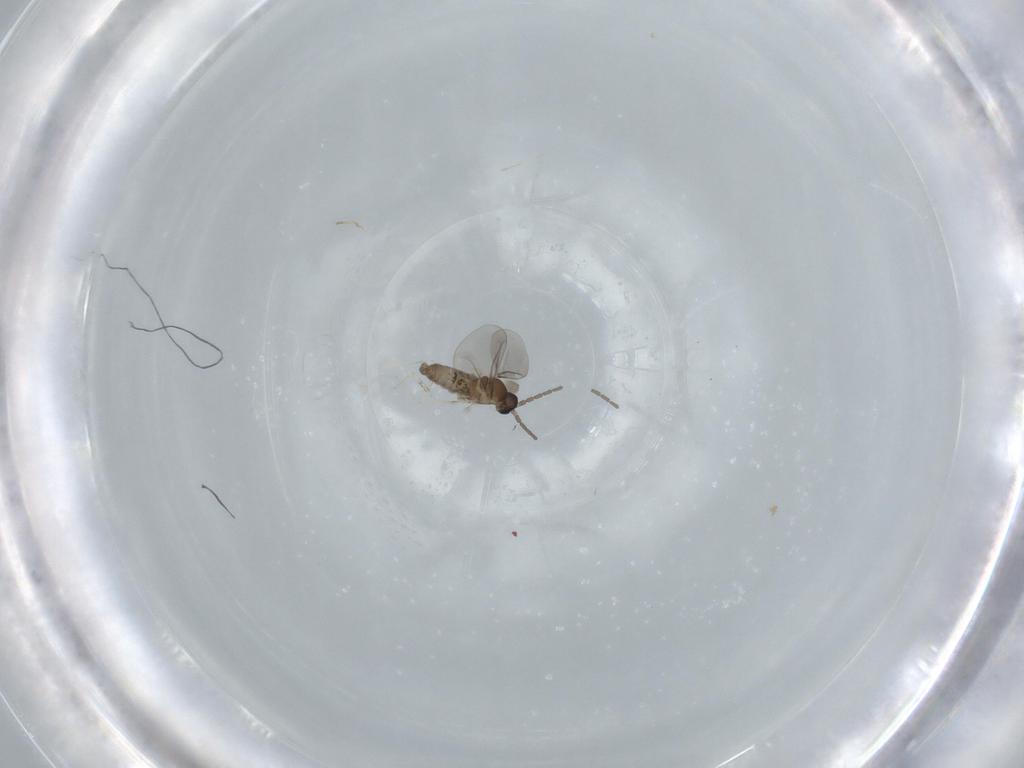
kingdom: Animalia
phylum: Arthropoda
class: Insecta
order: Diptera
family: Cecidomyiidae
